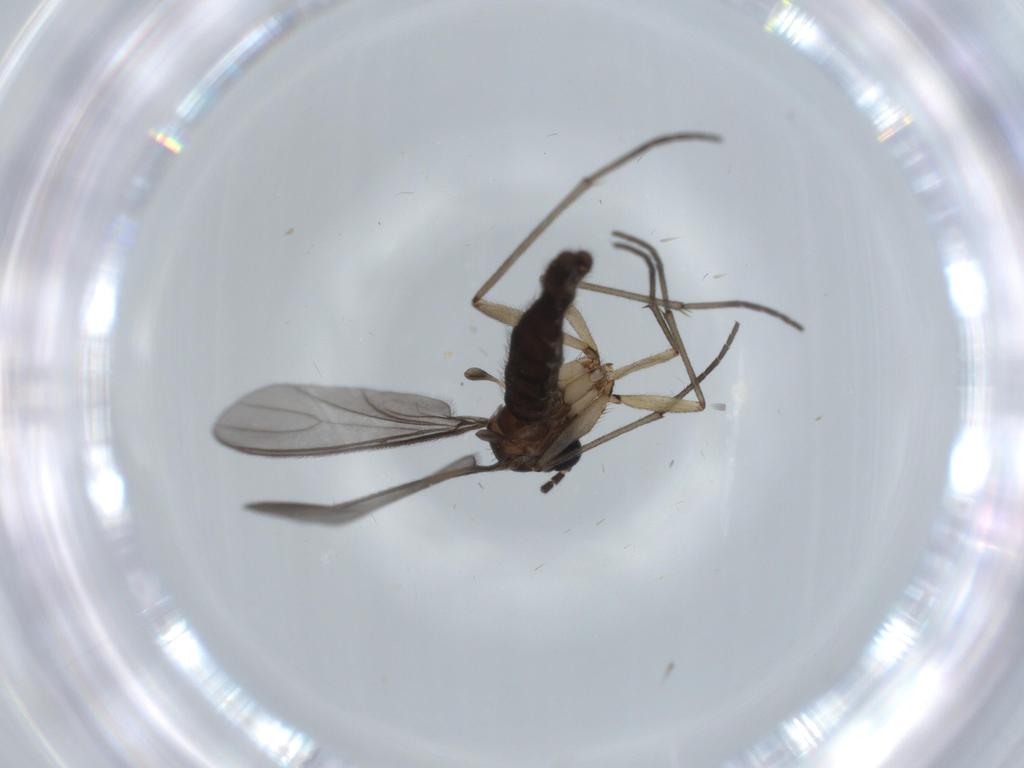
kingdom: Animalia
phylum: Arthropoda
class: Insecta
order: Diptera
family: Sciaridae
